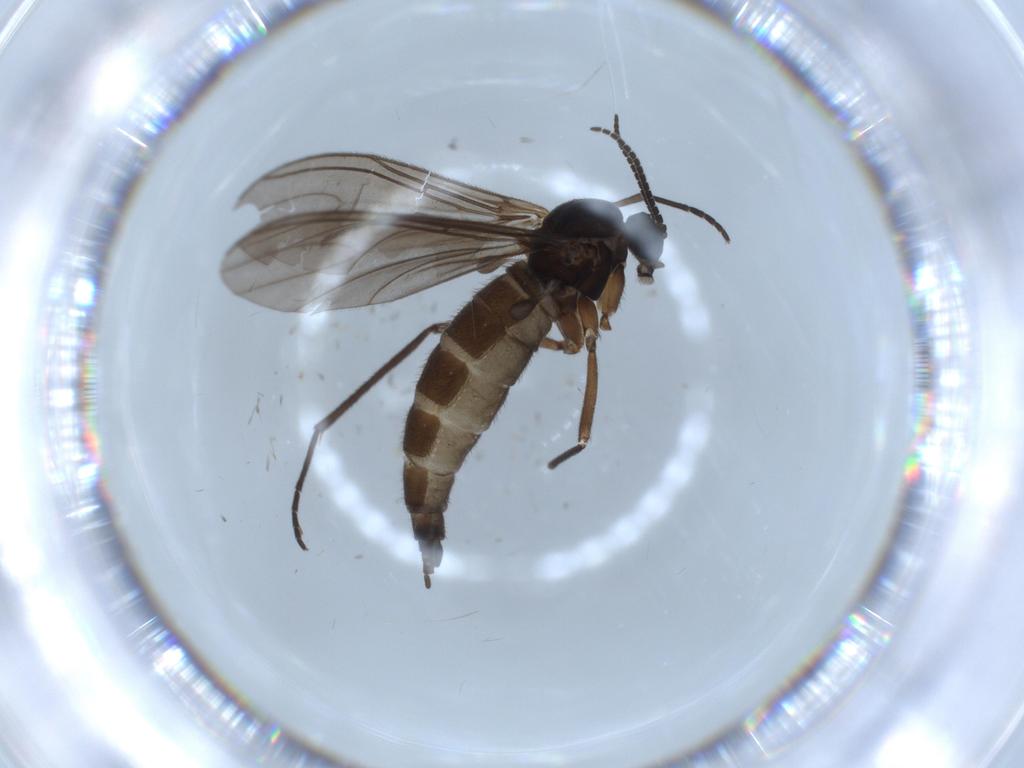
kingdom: Animalia
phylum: Arthropoda
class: Insecta
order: Diptera
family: Sciaridae
